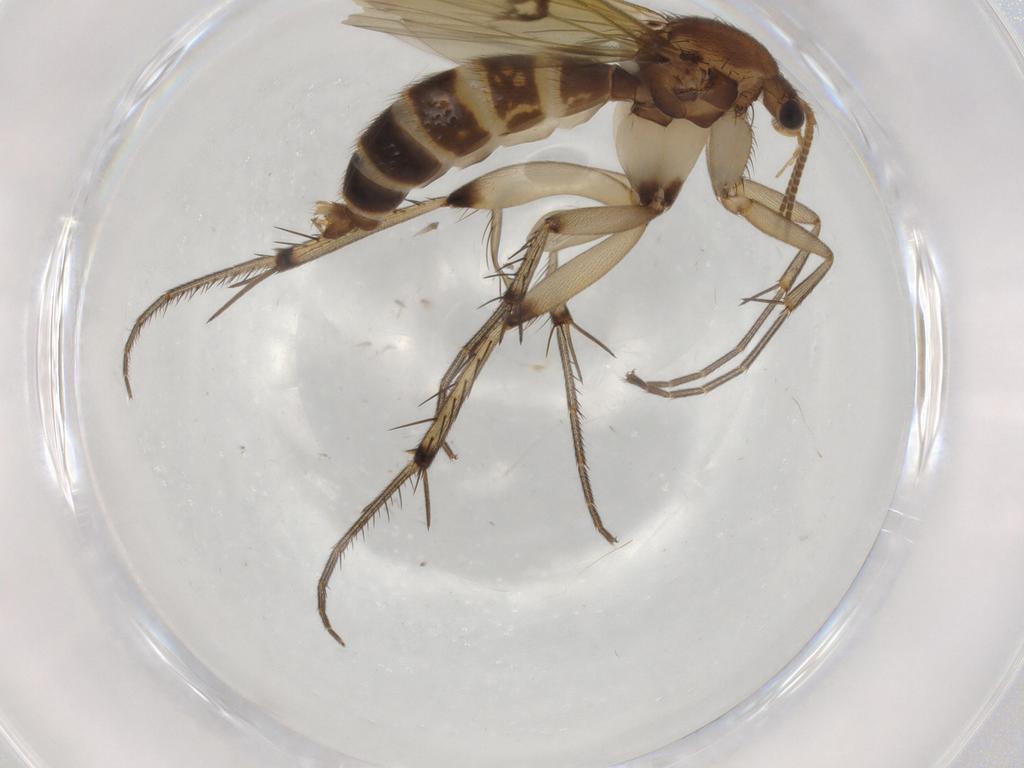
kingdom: Animalia
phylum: Arthropoda
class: Insecta
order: Diptera
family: Mycetophilidae
